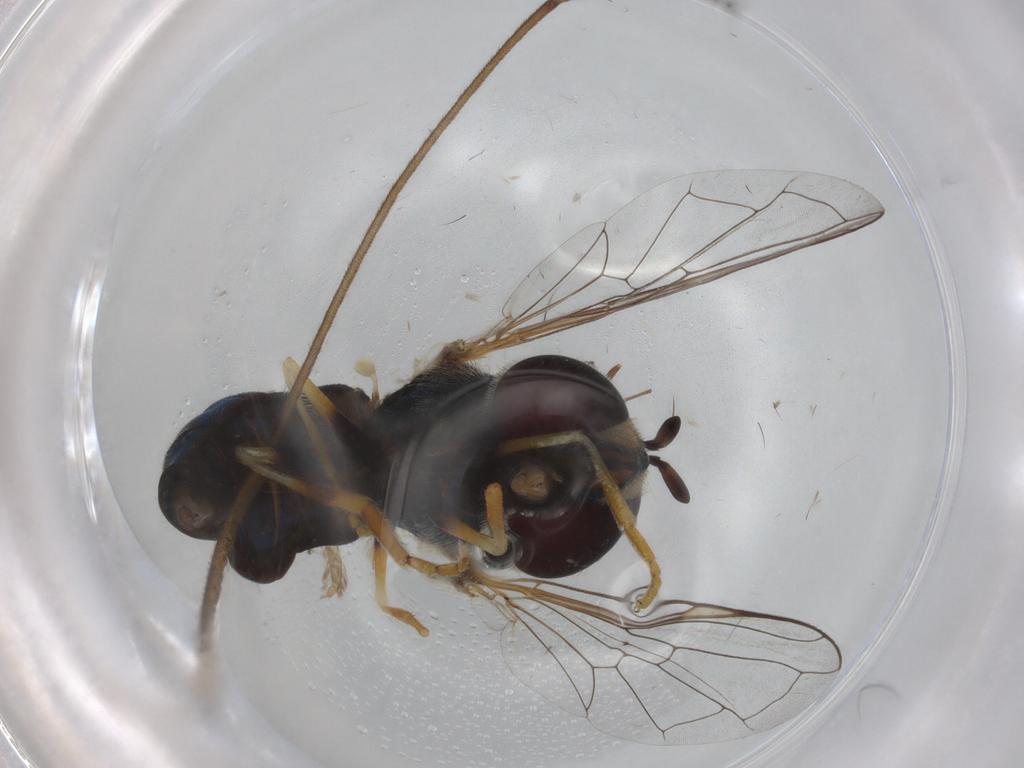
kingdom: Animalia
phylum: Arthropoda
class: Insecta
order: Diptera
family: Syrphidae
